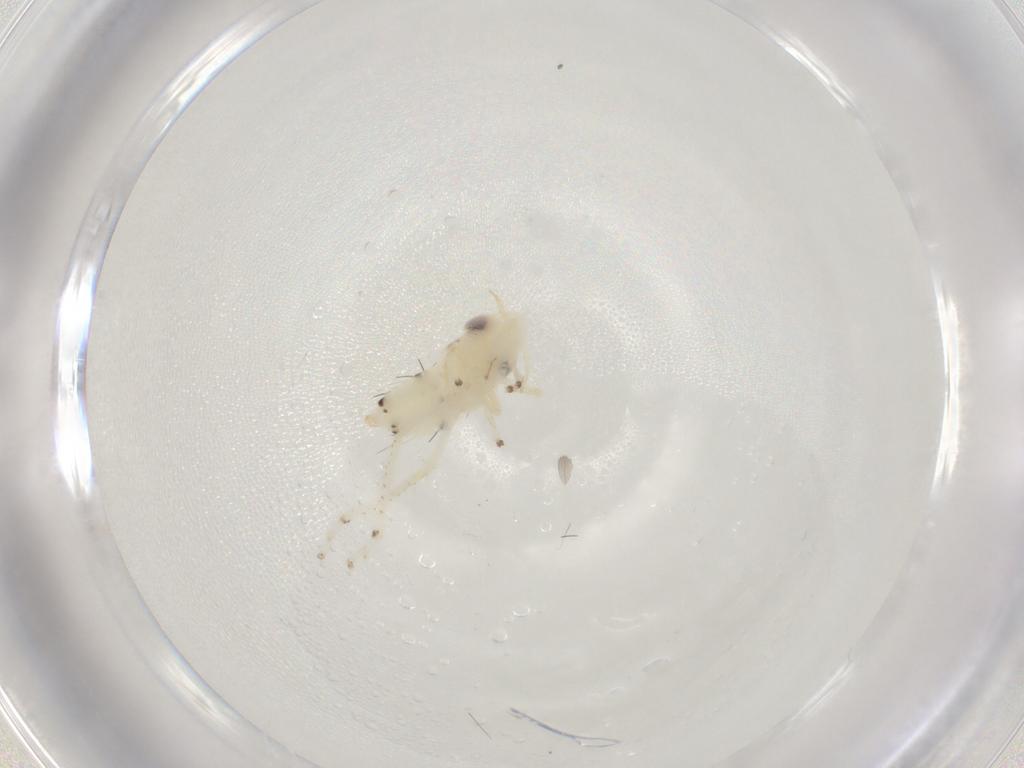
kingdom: Animalia
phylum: Arthropoda
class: Insecta
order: Hemiptera
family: Cicadellidae
